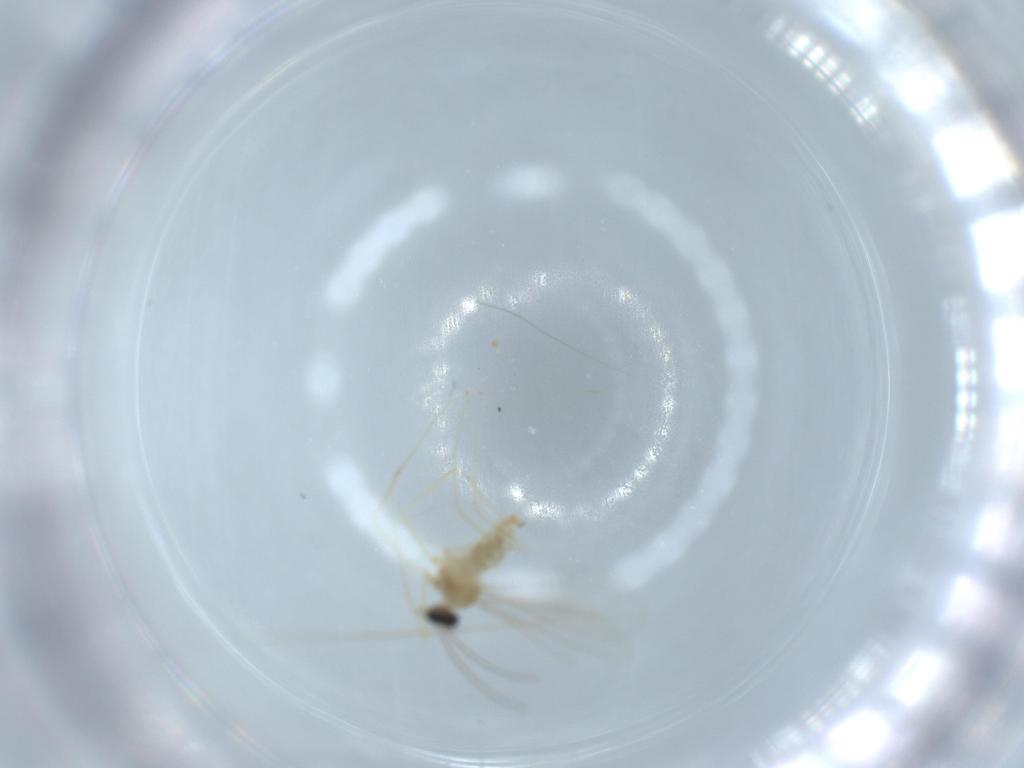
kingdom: Animalia
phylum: Arthropoda
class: Insecta
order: Diptera
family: Cecidomyiidae
